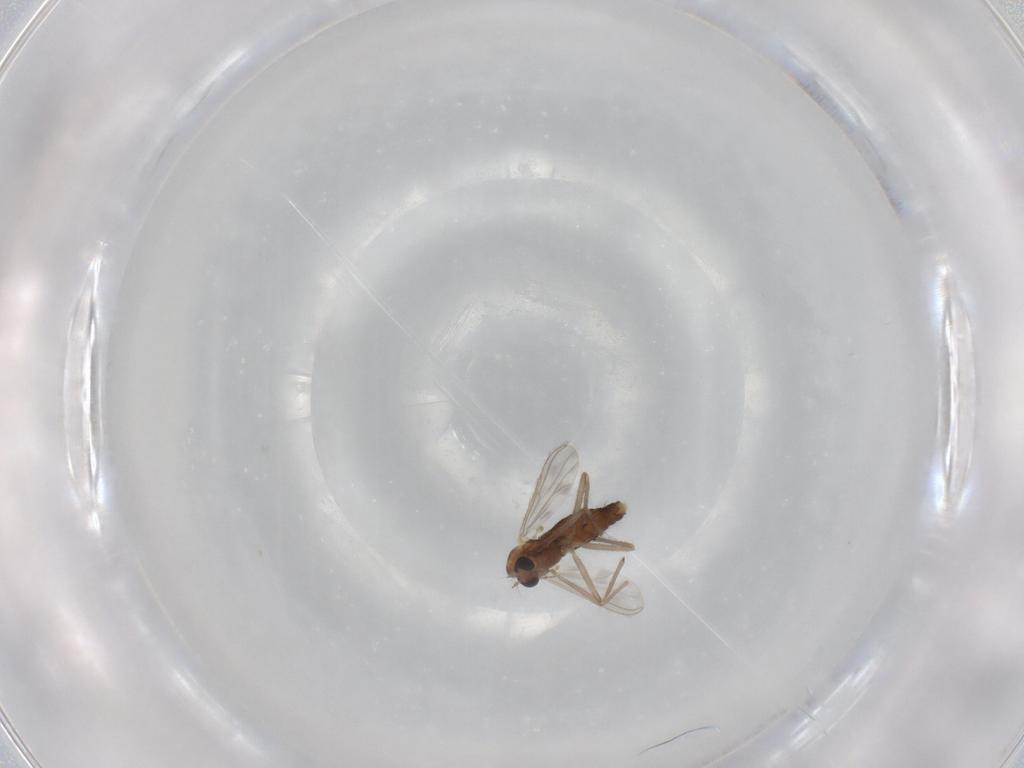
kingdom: Animalia
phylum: Arthropoda
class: Insecta
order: Diptera
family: Chironomidae
